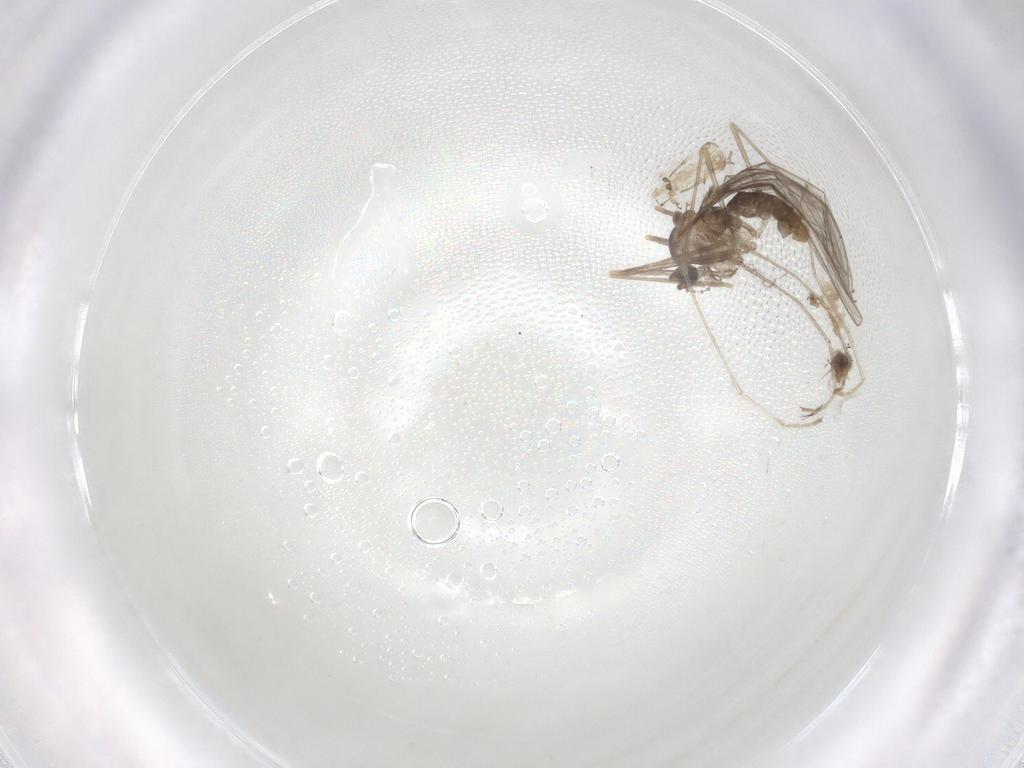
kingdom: Animalia
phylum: Arthropoda
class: Insecta
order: Diptera
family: Cecidomyiidae
